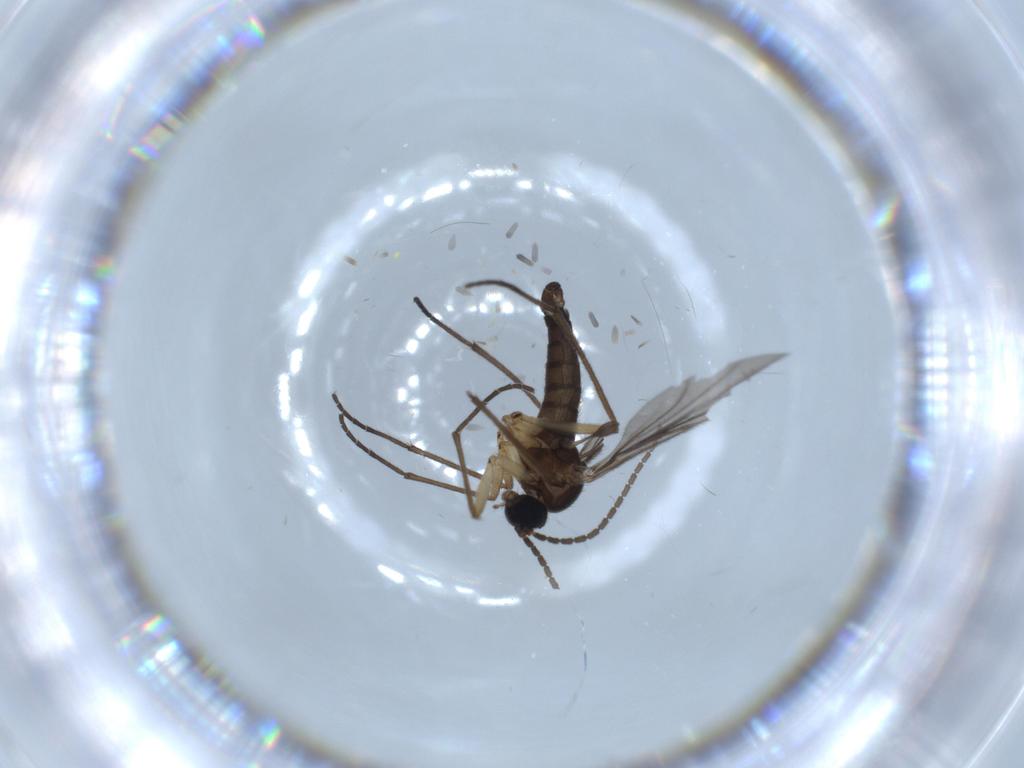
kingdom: Animalia
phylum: Arthropoda
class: Insecta
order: Diptera
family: Sciaridae
